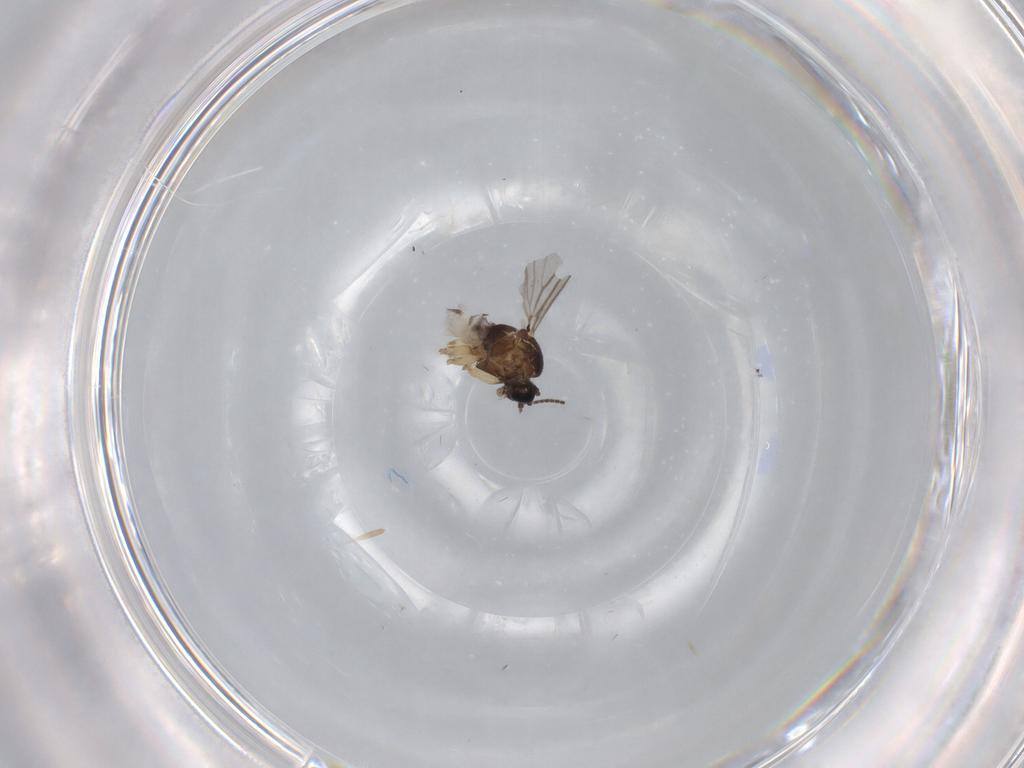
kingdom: Animalia
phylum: Arthropoda
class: Insecta
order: Diptera
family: Sciaridae
